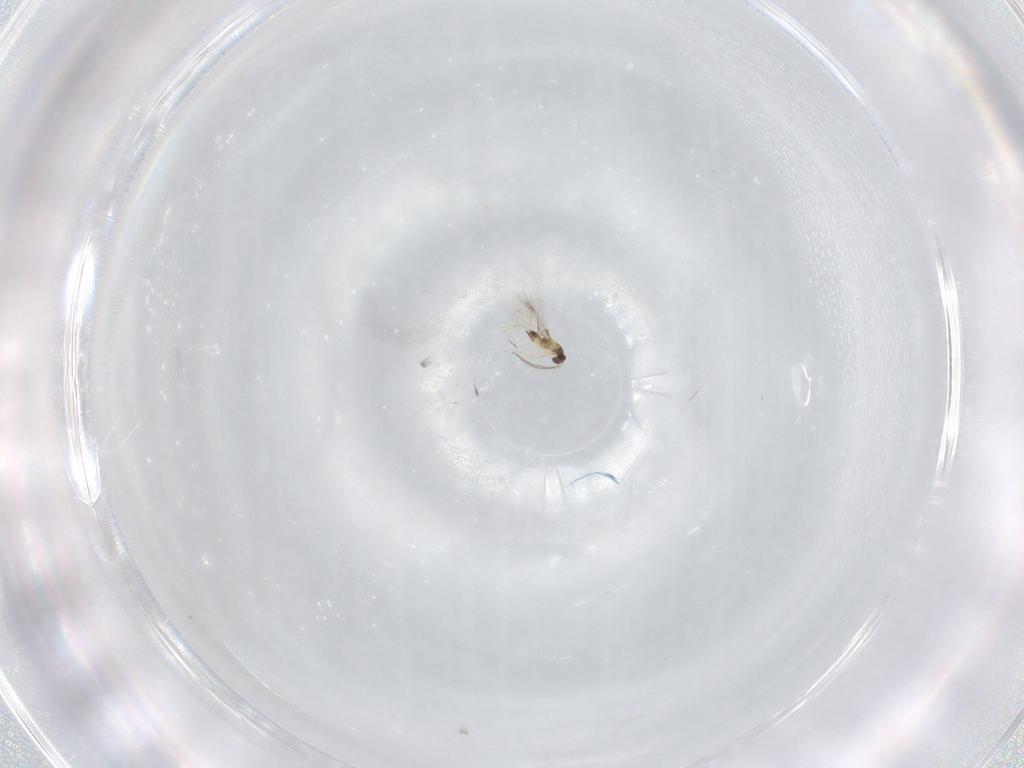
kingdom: Animalia
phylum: Arthropoda
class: Insecta
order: Hymenoptera
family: Mymaridae
